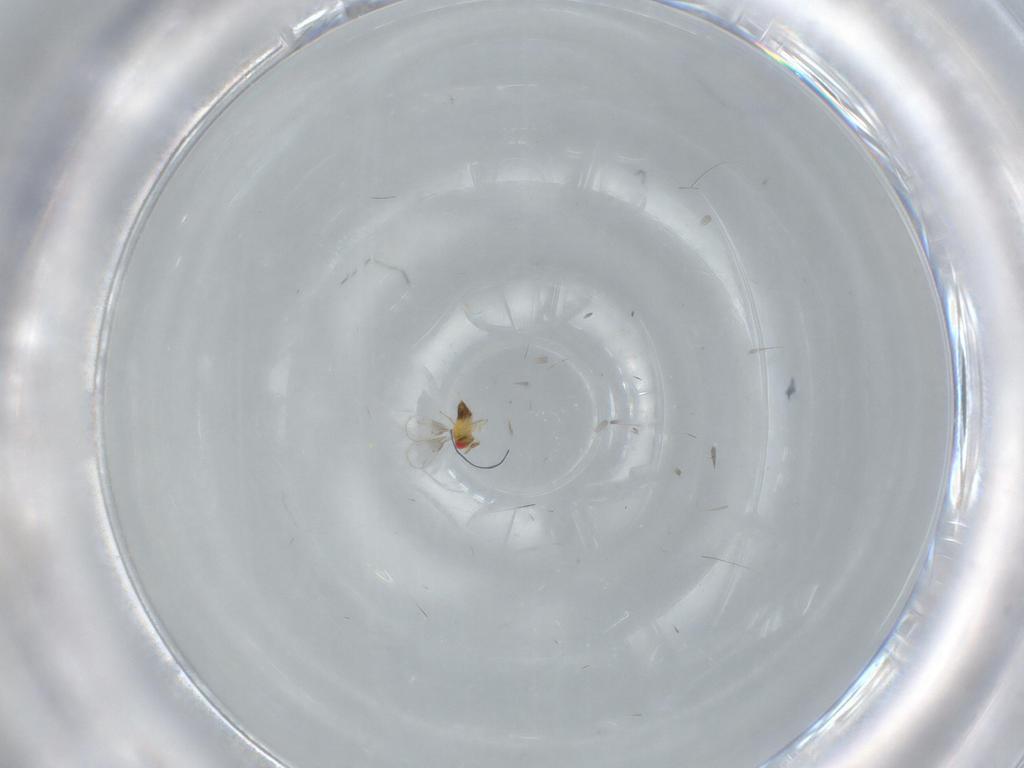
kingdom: Animalia
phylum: Arthropoda
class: Insecta
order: Hymenoptera
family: Trichogrammatidae
